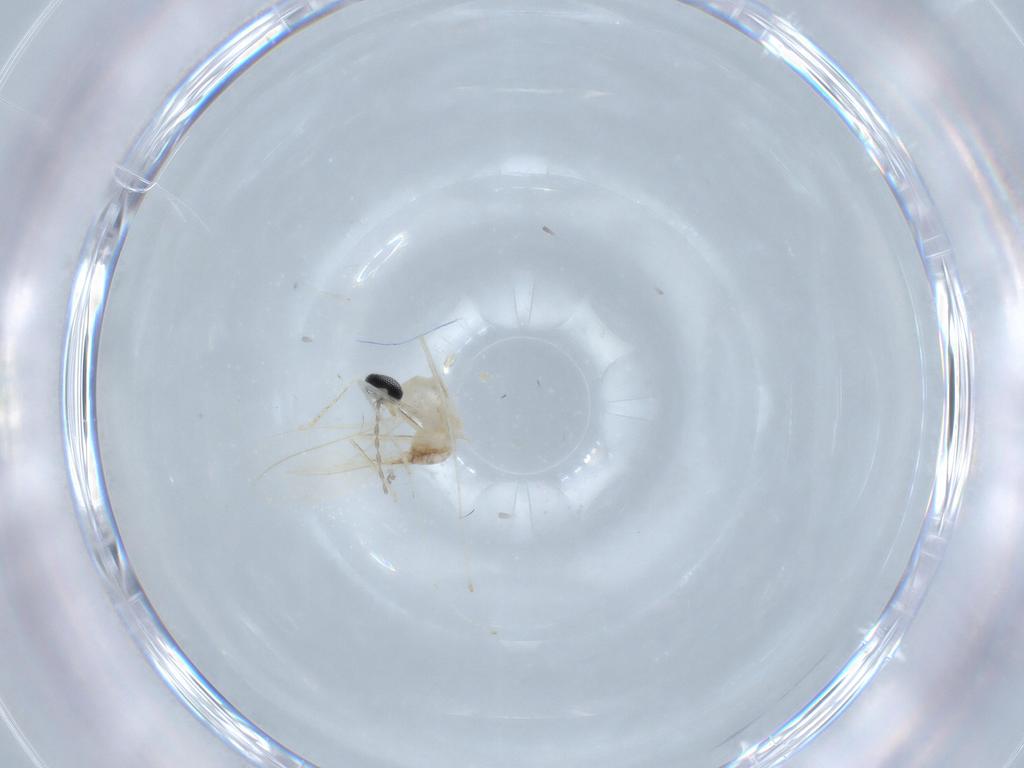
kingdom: Animalia
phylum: Arthropoda
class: Insecta
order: Diptera
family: Cecidomyiidae
